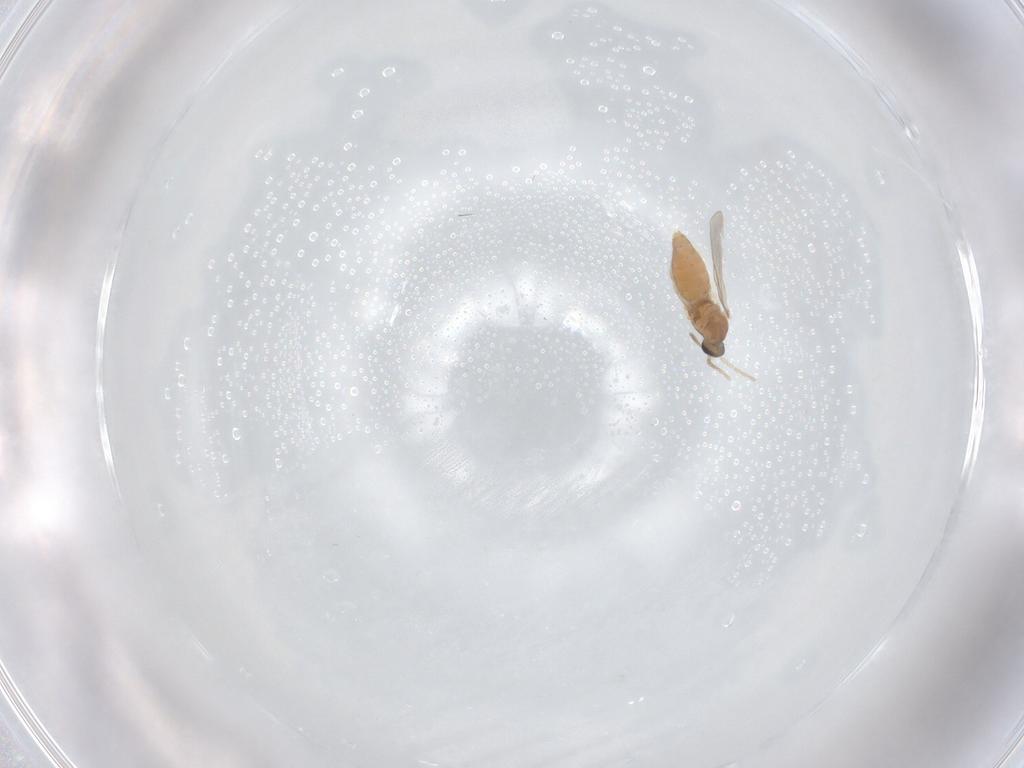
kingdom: Animalia
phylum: Arthropoda
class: Insecta
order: Diptera
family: Cecidomyiidae
